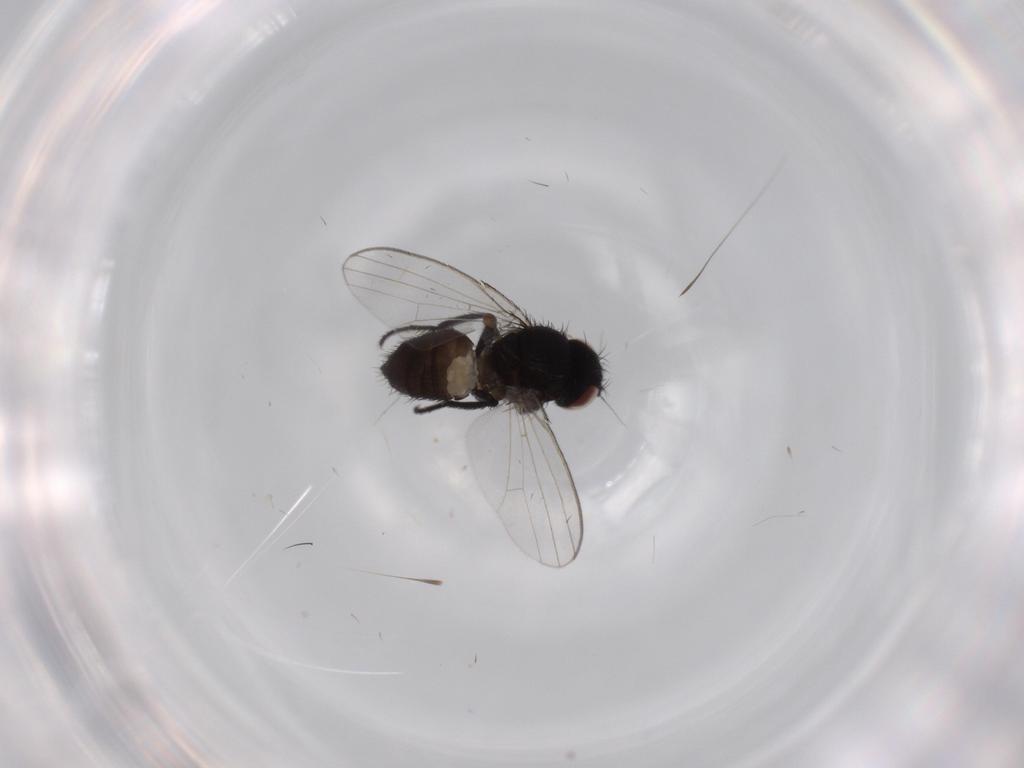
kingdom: Animalia
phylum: Arthropoda
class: Insecta
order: Diptera
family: Milichiidae
